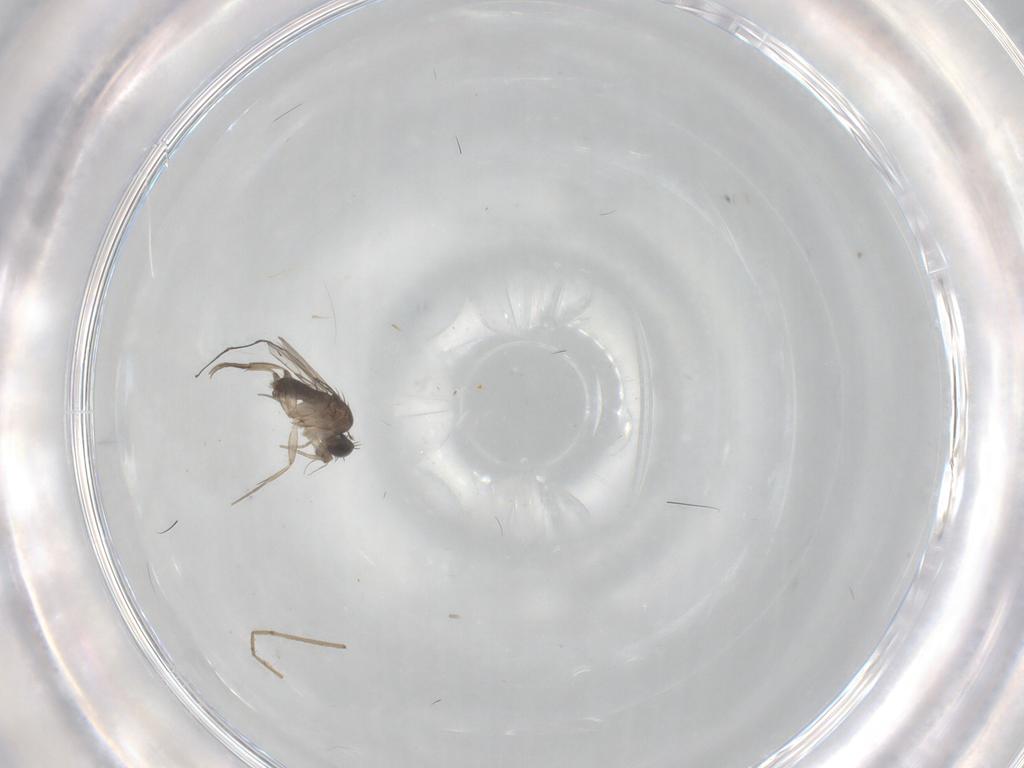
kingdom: Animalia
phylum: Arthropoda
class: Insecta
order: Diptera
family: Phoridae
